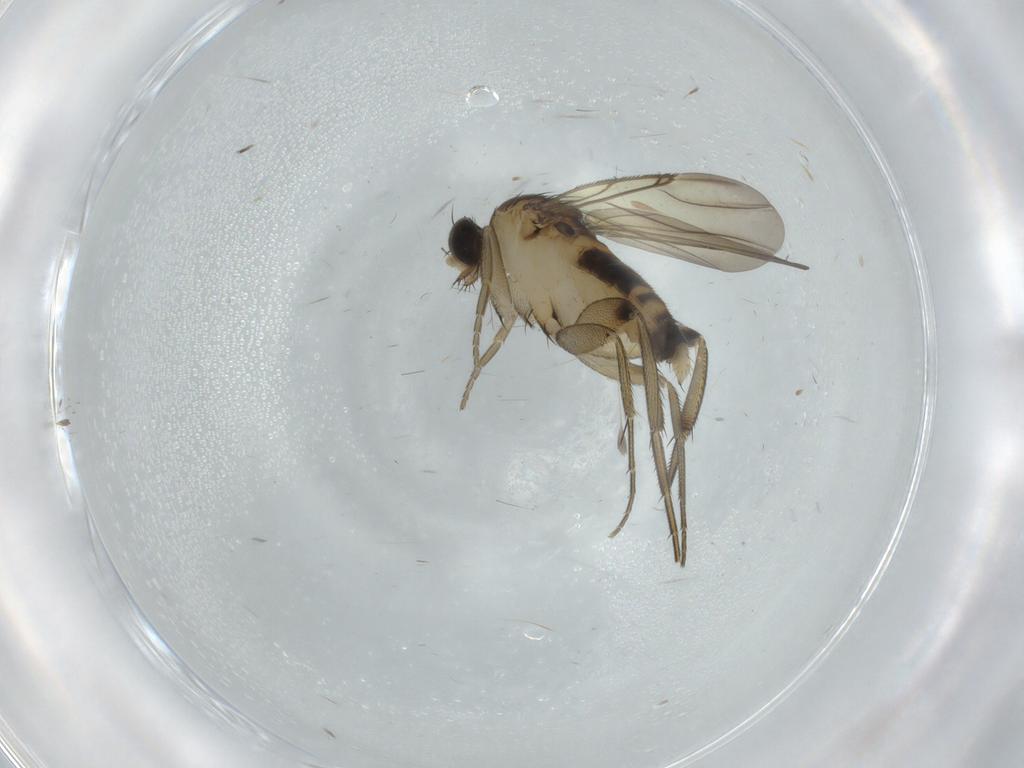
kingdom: Animalia
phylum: Arthropoda
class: Insecta
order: Diptera
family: Phoridae
